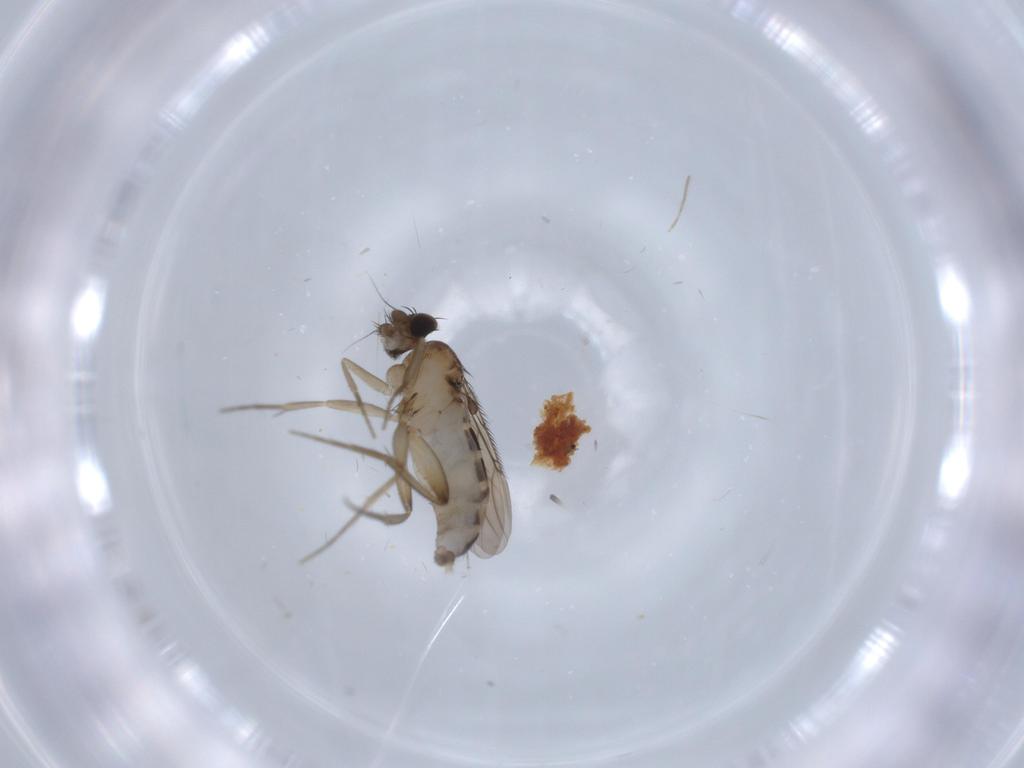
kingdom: Animalia
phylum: Arthropoda
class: Insecta
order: Diptera
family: Phoridae
